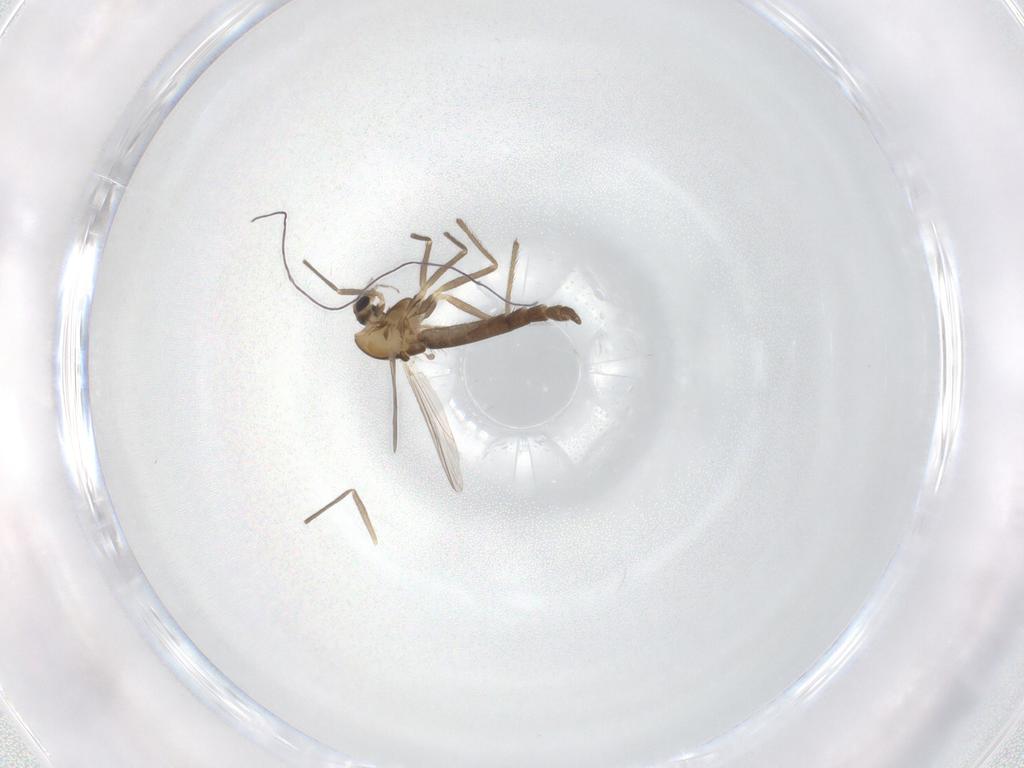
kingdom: Animalia
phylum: Arthropoda
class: Insecta
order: Diptera
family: Chironomidae
